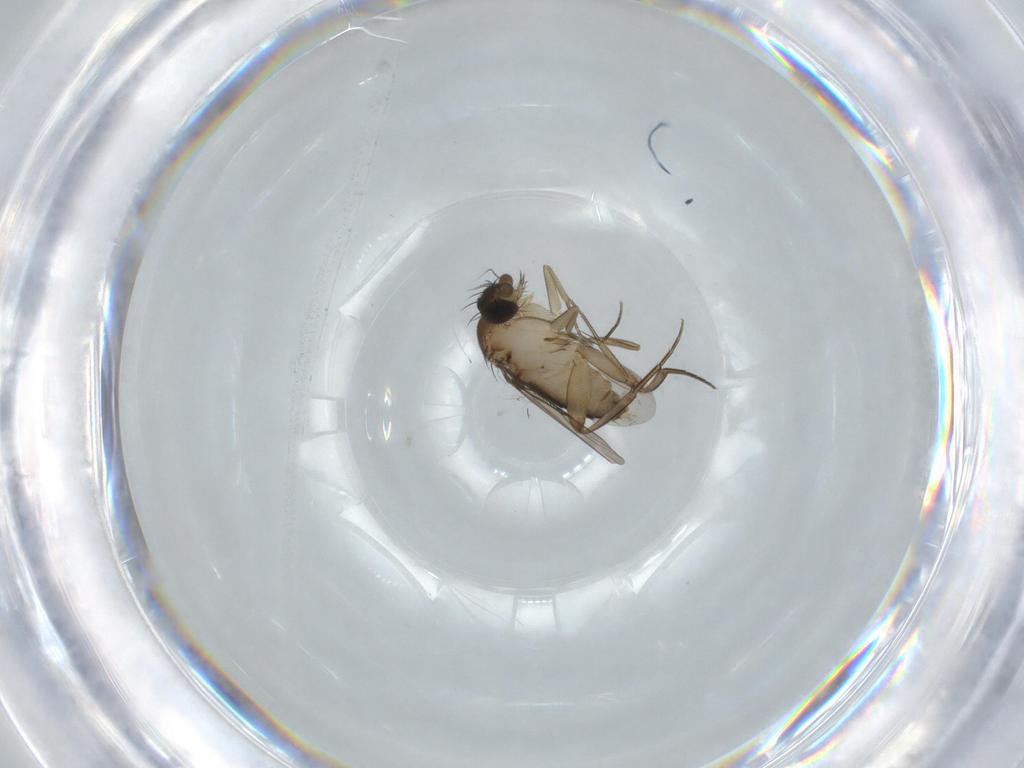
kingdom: Animalia
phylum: Arthropoda
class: Insecta
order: Diptera
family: Phoridae
